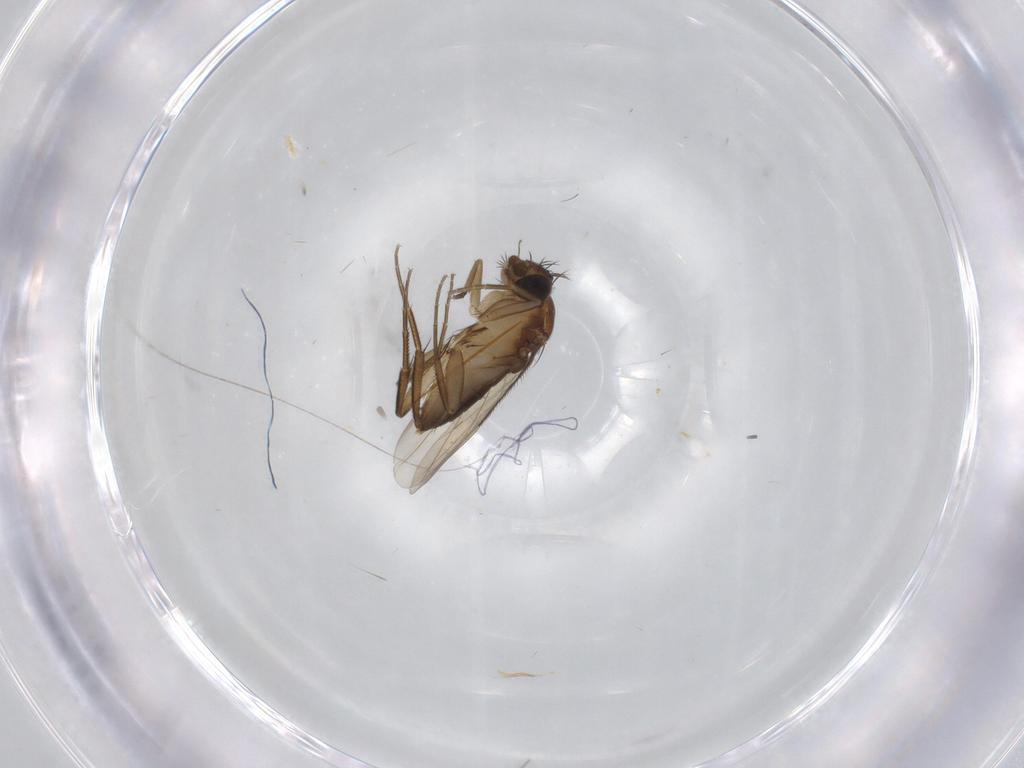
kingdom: Animalia
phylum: Arthropoda
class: Insecta
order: Diptera
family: Phoridae
